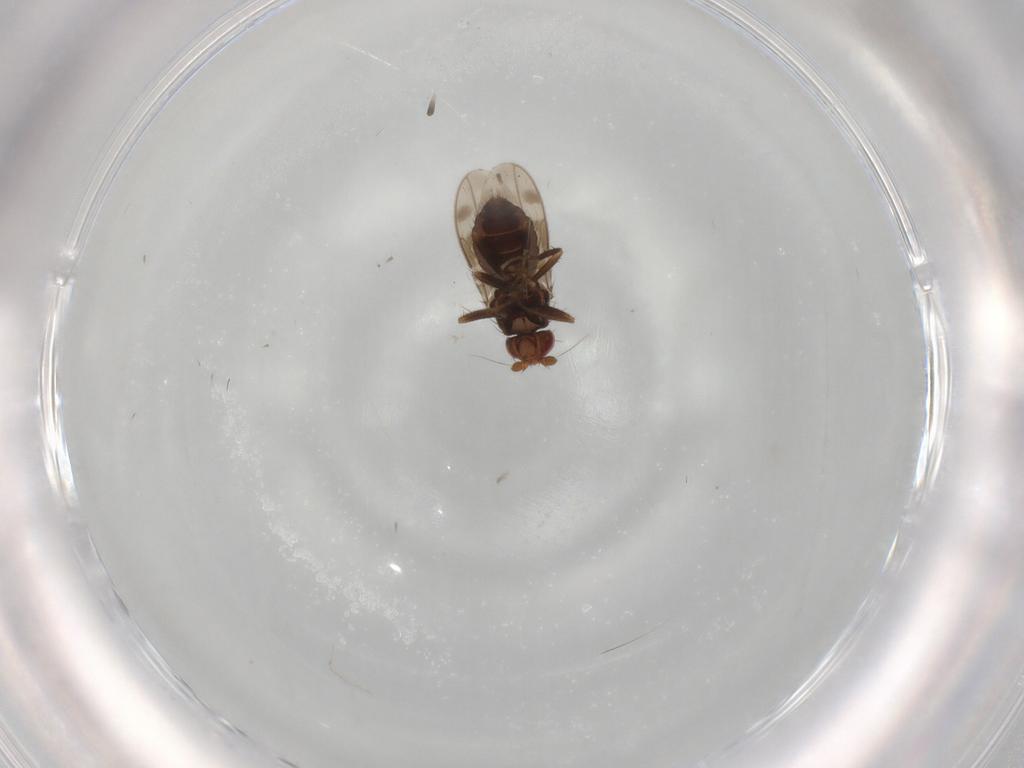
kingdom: Animalia
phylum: Arthropoda
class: Insecta
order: Diptera
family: Sphaeroceridae
